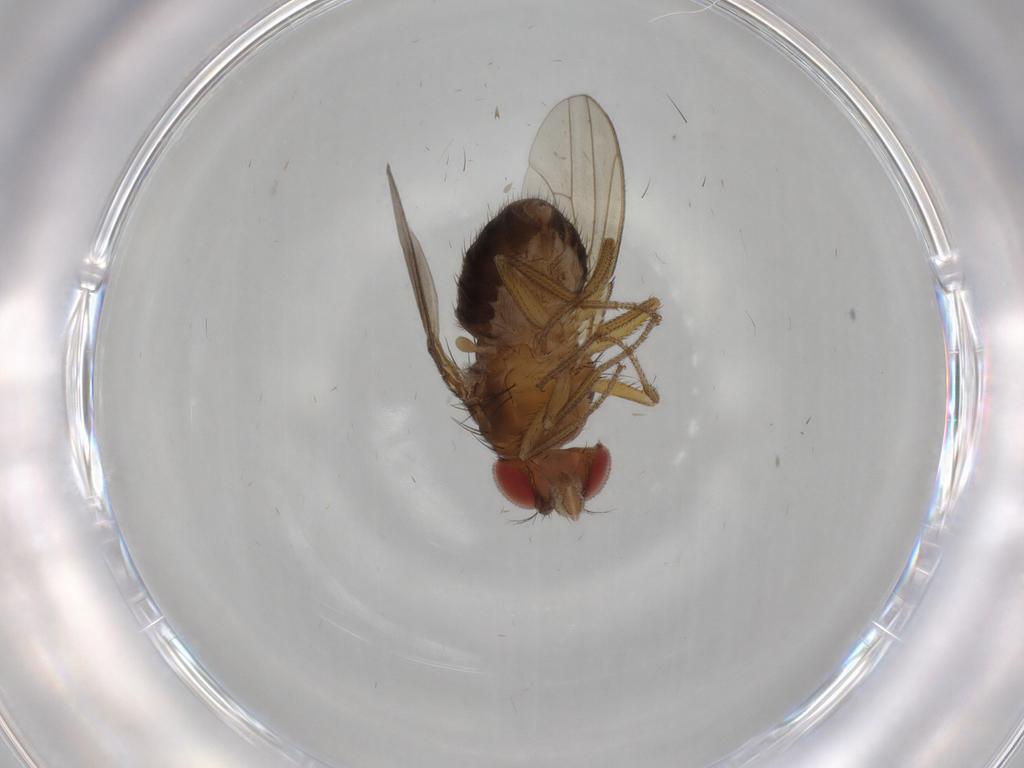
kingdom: Animalia
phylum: Arthropoda
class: Insecta
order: Diptera
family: Drosophilidae
